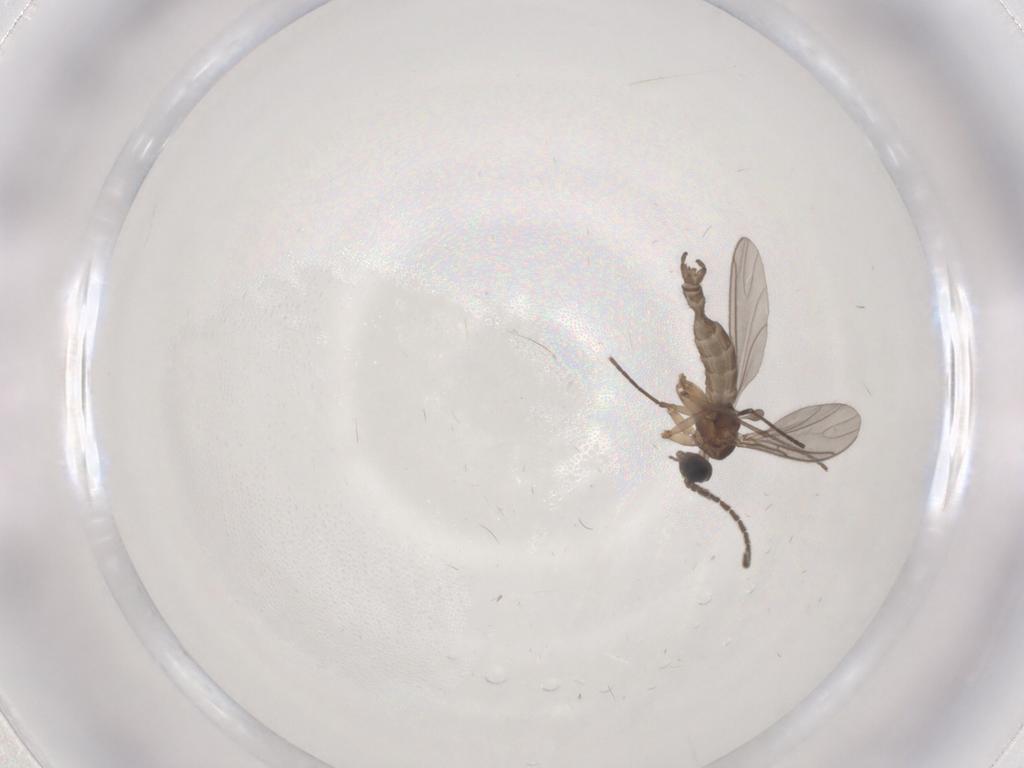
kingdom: Animalia
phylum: Arthropoda
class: Insecta
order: Diptera
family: Sciaridae
